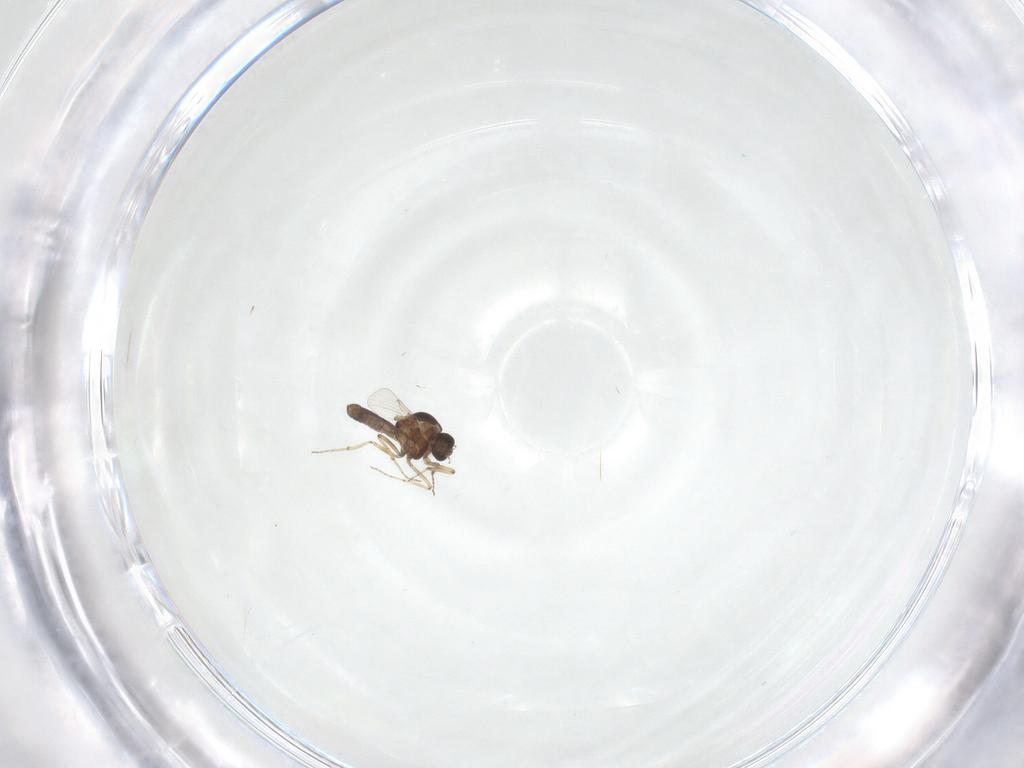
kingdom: Animalia
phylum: Arthropoda
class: Insecta
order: Diptera
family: Ceratopogonidae
